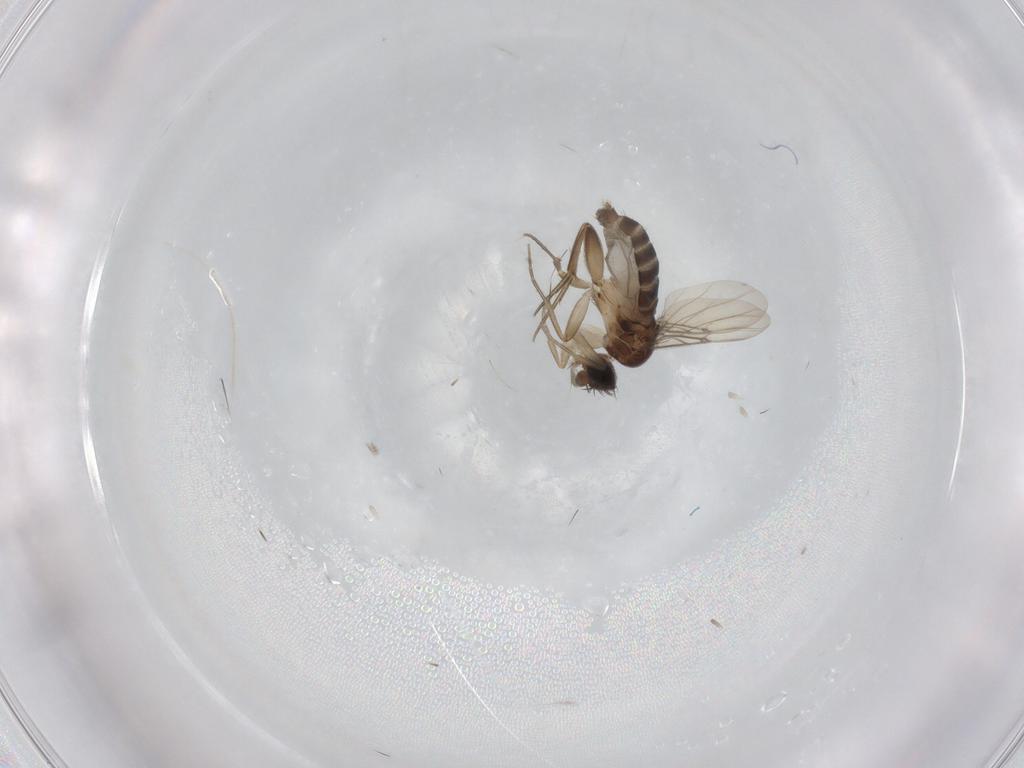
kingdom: Animalia
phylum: Arthropoda
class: Insecta
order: Diptera
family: Phoridae
